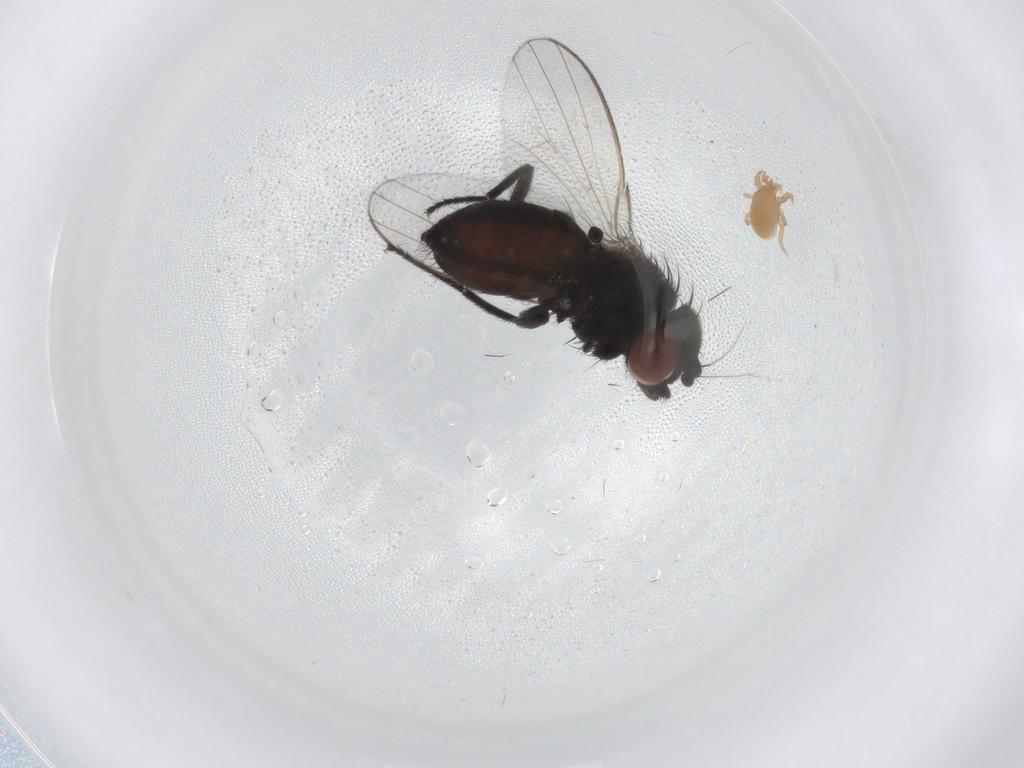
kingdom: Animalia
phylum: Arthropoda
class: Insecta
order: Diptera
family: Milichiidae
